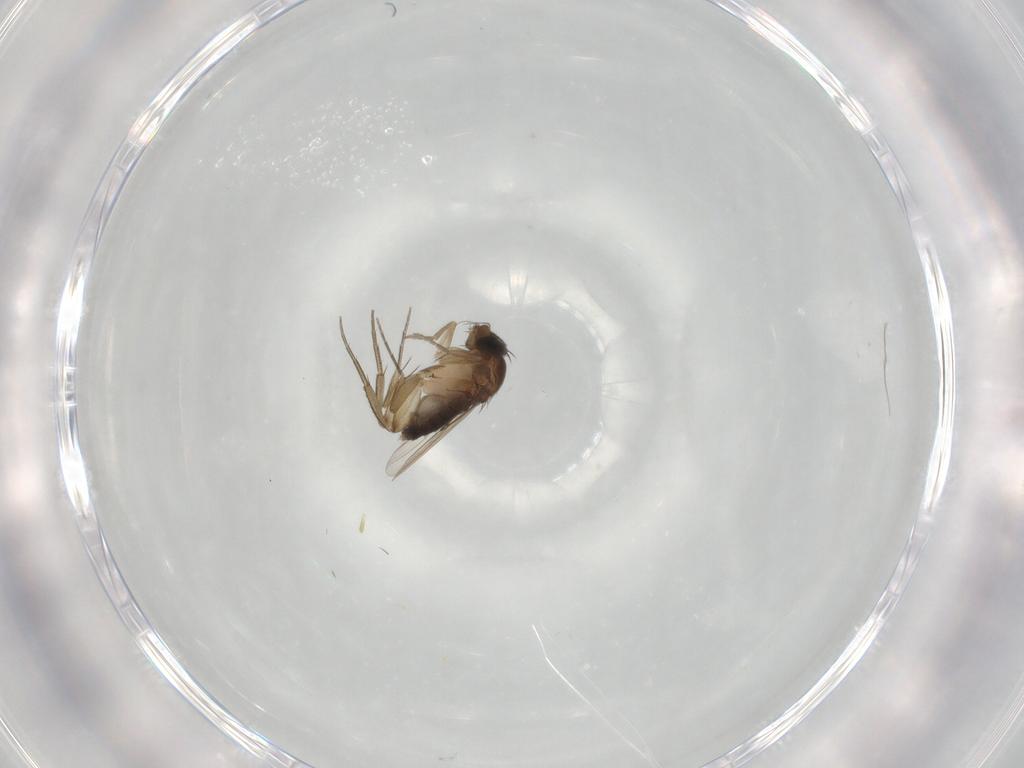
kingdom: Animalia
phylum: Arthropoda
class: Insecta
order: Diptera
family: Phoridae
